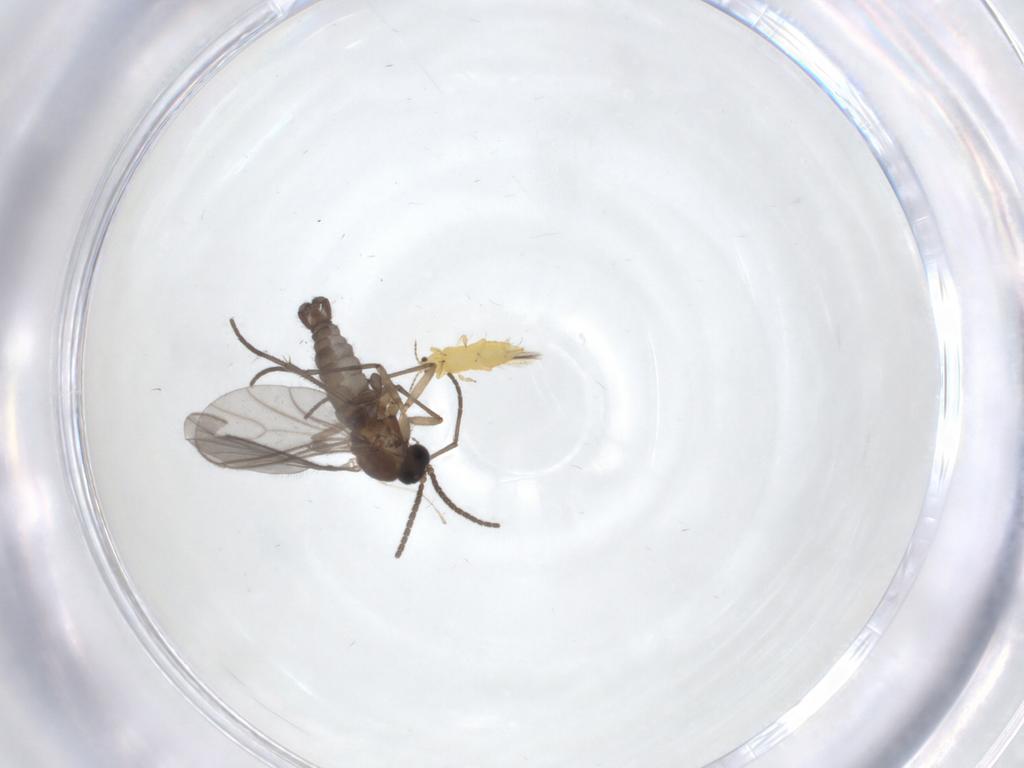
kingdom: Animalia
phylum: Arthropoda
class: Insecta
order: Diptera
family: Sciaridae
